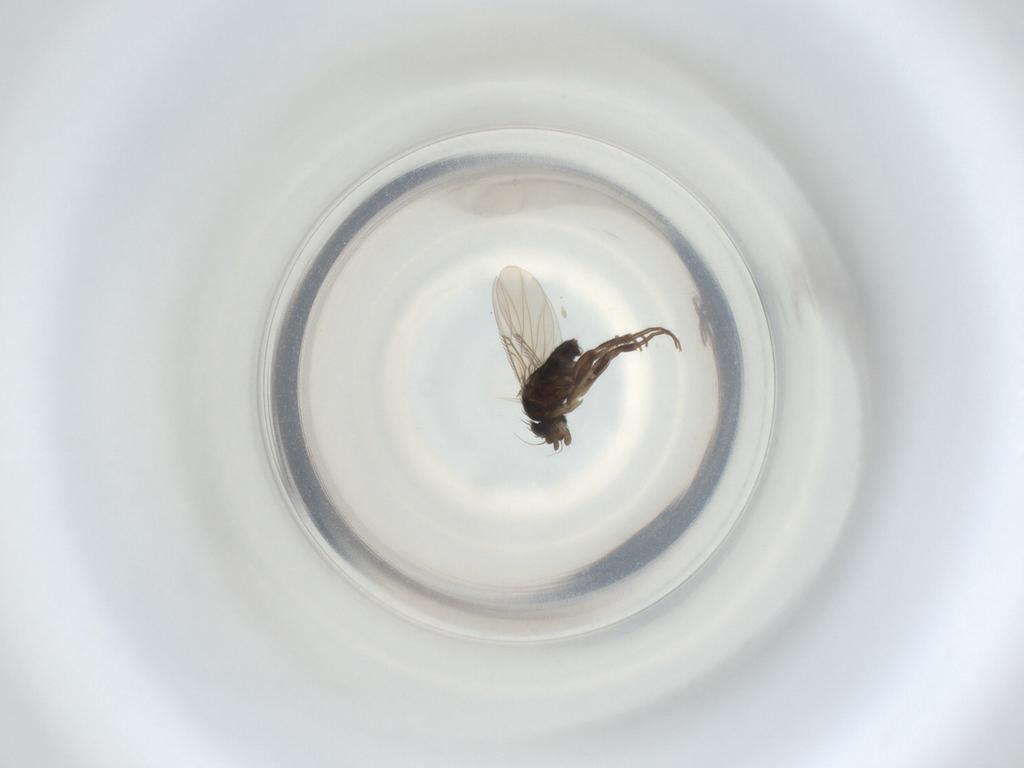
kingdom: Animalia
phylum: Arthropoda
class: Insecta
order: Diptera
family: Phoridae
